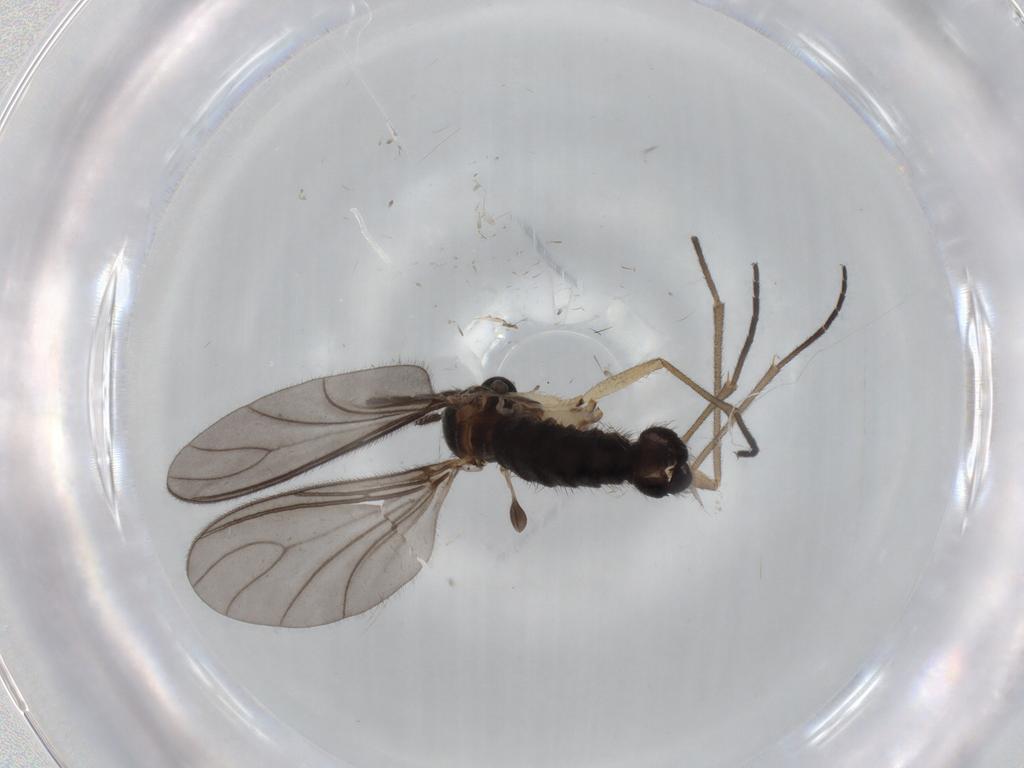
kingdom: Animalia
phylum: Arthropoda
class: Insecta
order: Diptera
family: Sciaridae
